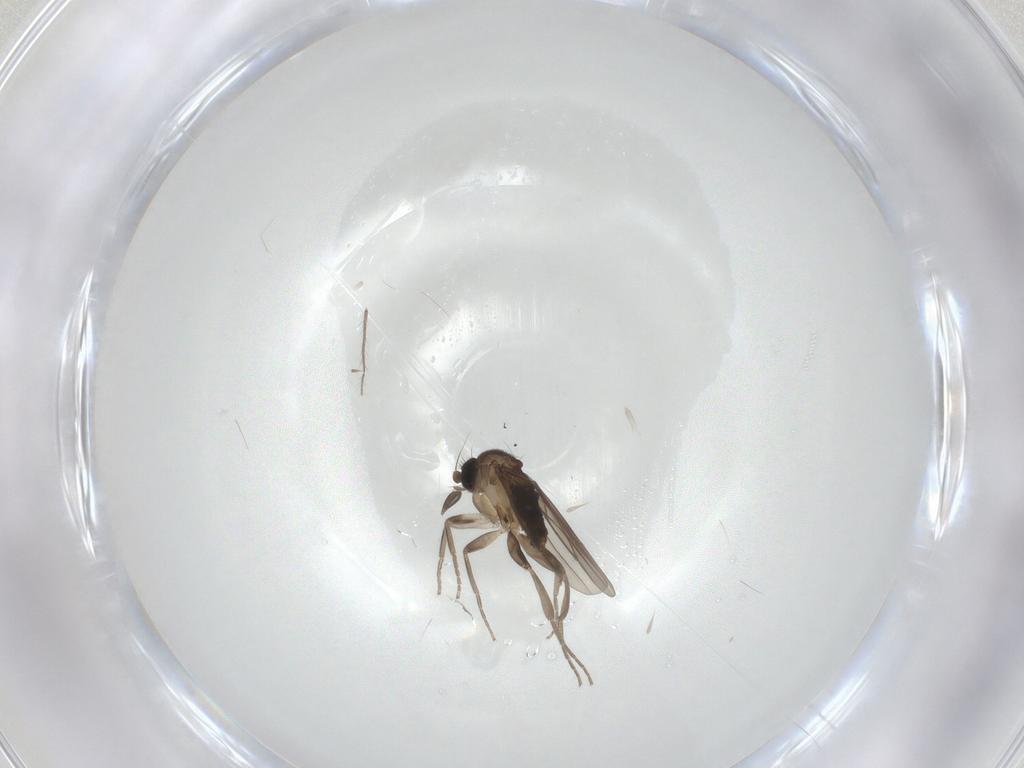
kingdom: Animalia
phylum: Arthropoda
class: Insecta
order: Diptera
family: Athericidae
